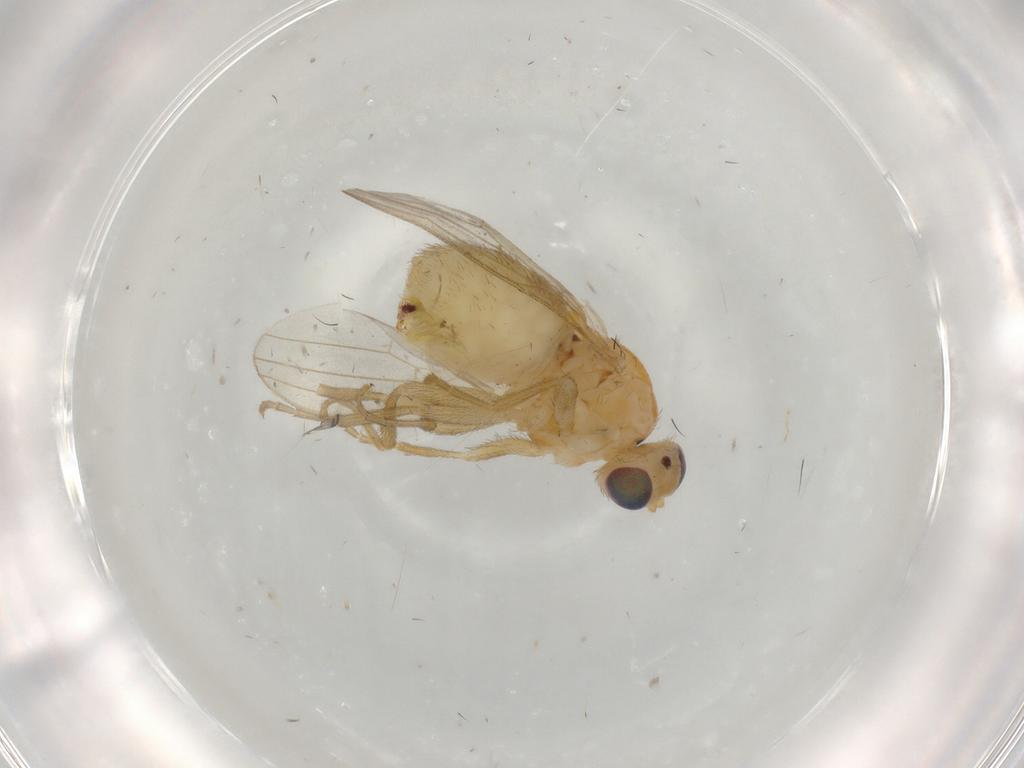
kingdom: Animalia
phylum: Arthropoda
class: Insecta
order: Diptera
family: Chyromyidae
